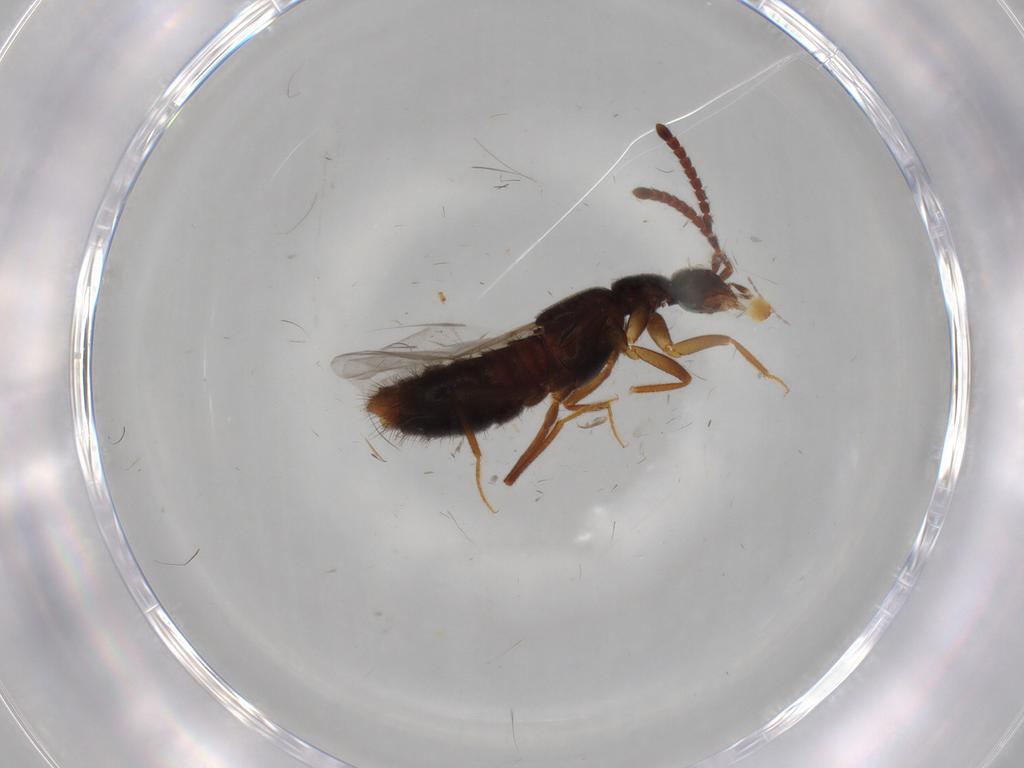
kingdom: Animalia
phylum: Arthropoda
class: Insecta
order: Coleoptera
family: Staphylinidae
